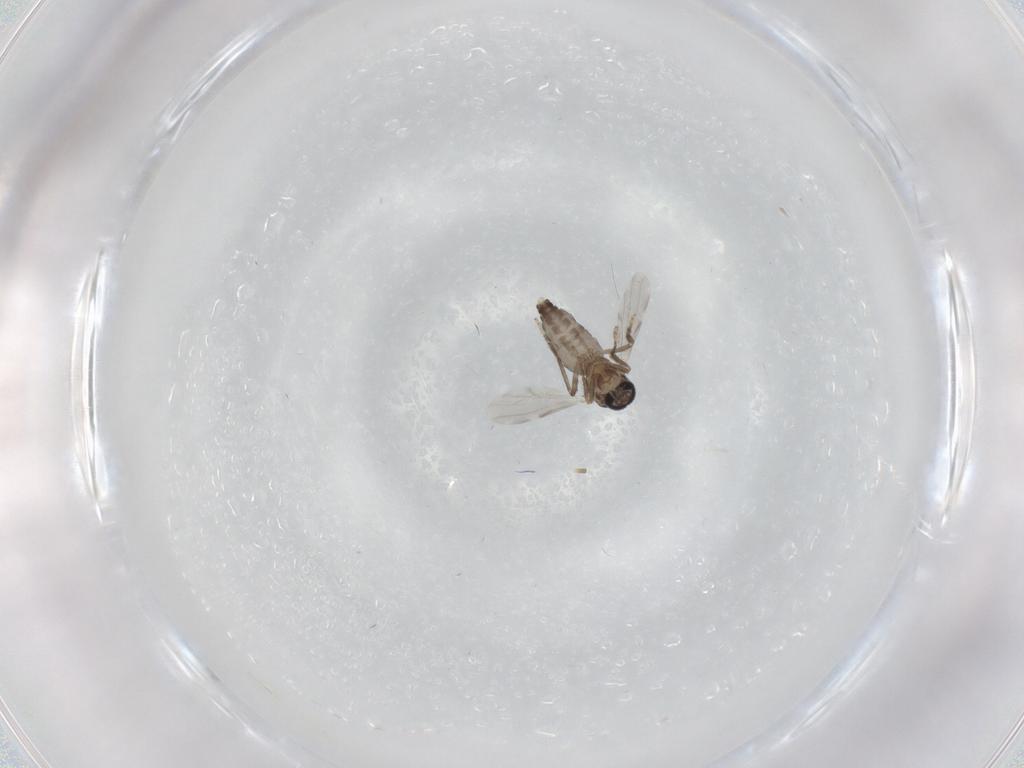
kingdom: Animalia
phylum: Arthropoda
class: Insecta
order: Diptera
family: Ceratopogonidae
